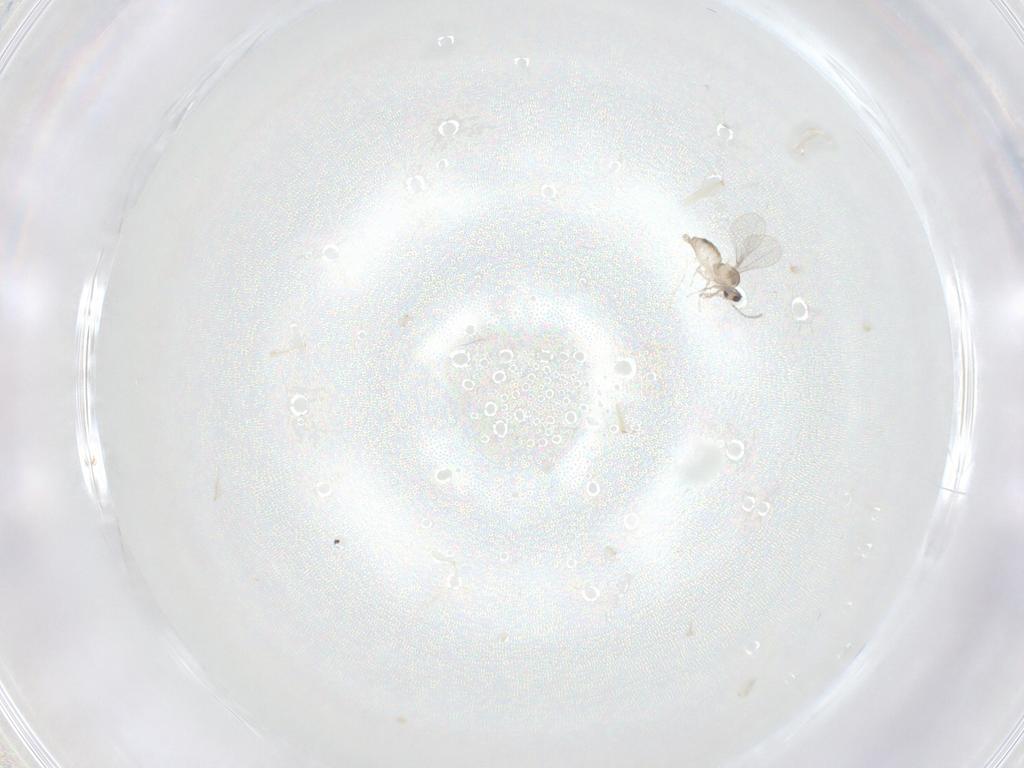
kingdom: Animalia
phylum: Arthropoda
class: Insecta
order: Diptera
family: Cecidomyiidae
